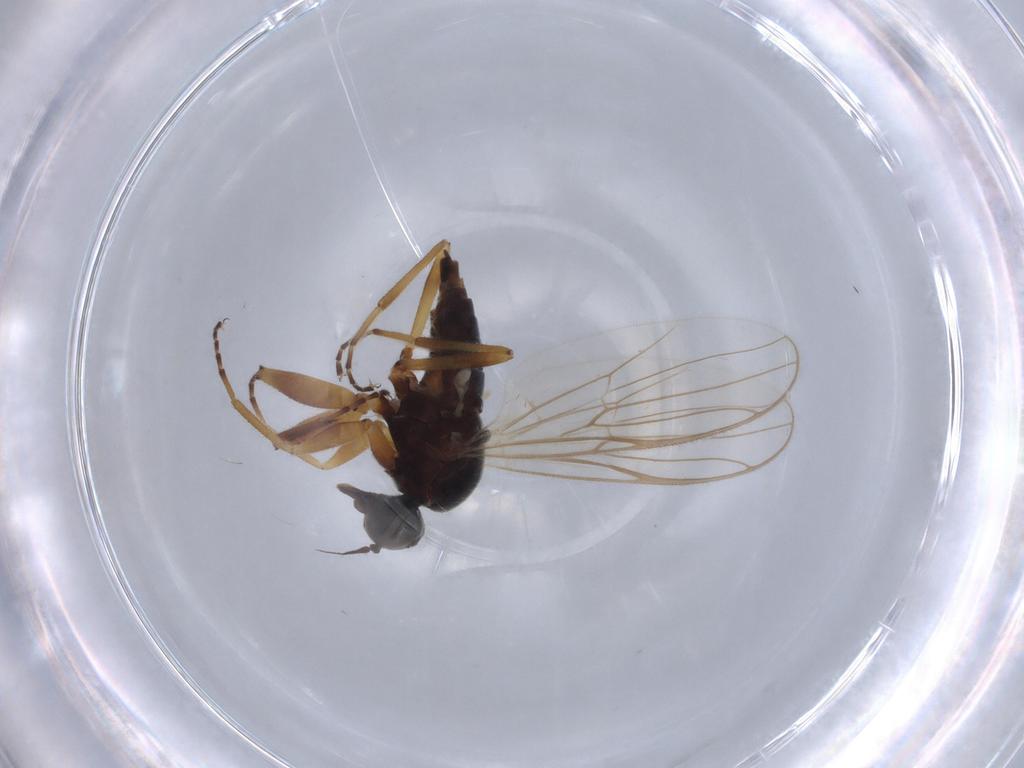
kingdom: Animalia
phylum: Arthropoda
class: Insecta
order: Diptera
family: Hybotidae
